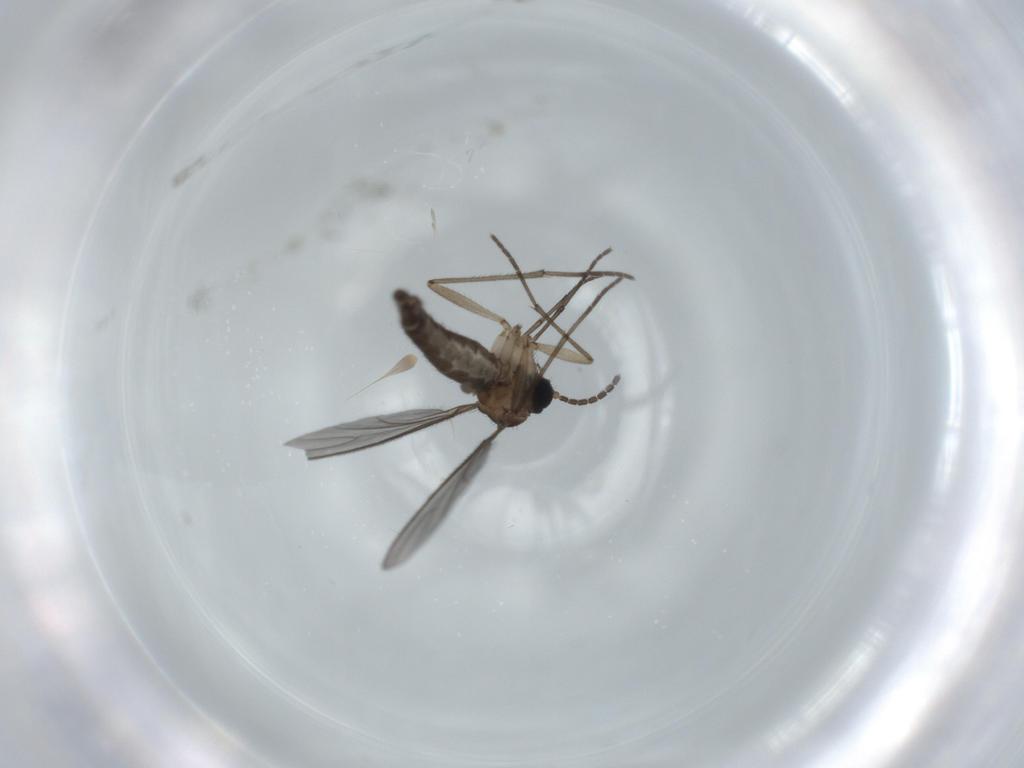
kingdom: Animalia
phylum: Arthropoda
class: Insecta
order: Diptera
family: Sciaridae
